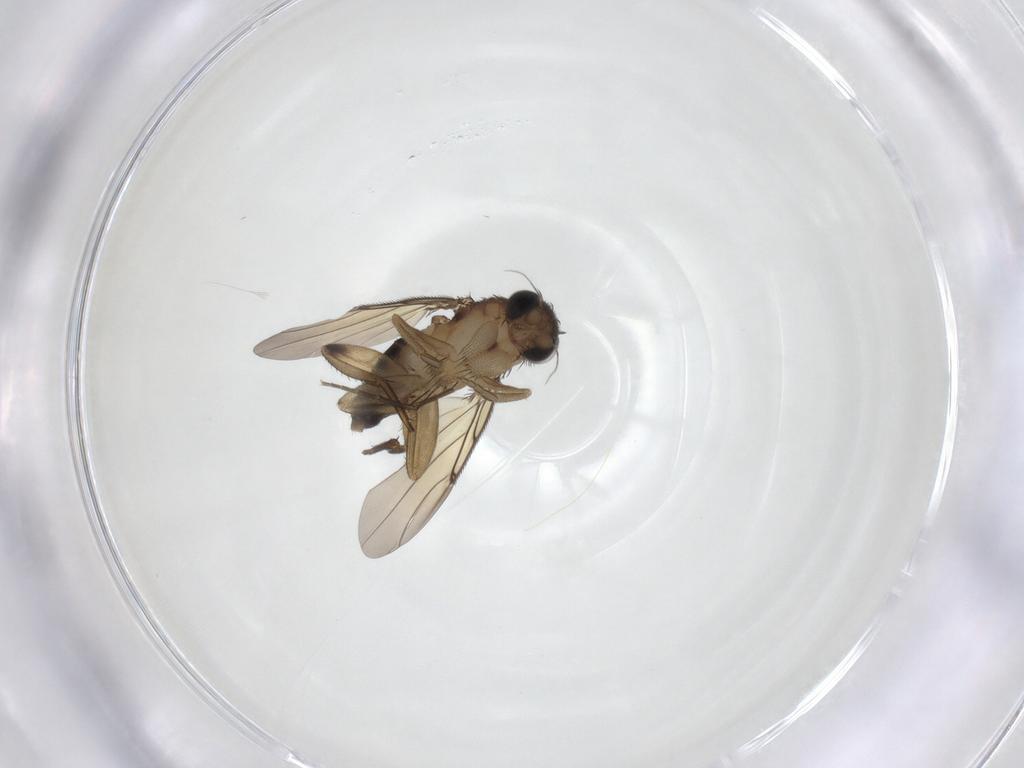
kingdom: Animalia
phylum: Arthropoda
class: Insecta
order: Diptera
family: Phoridae
